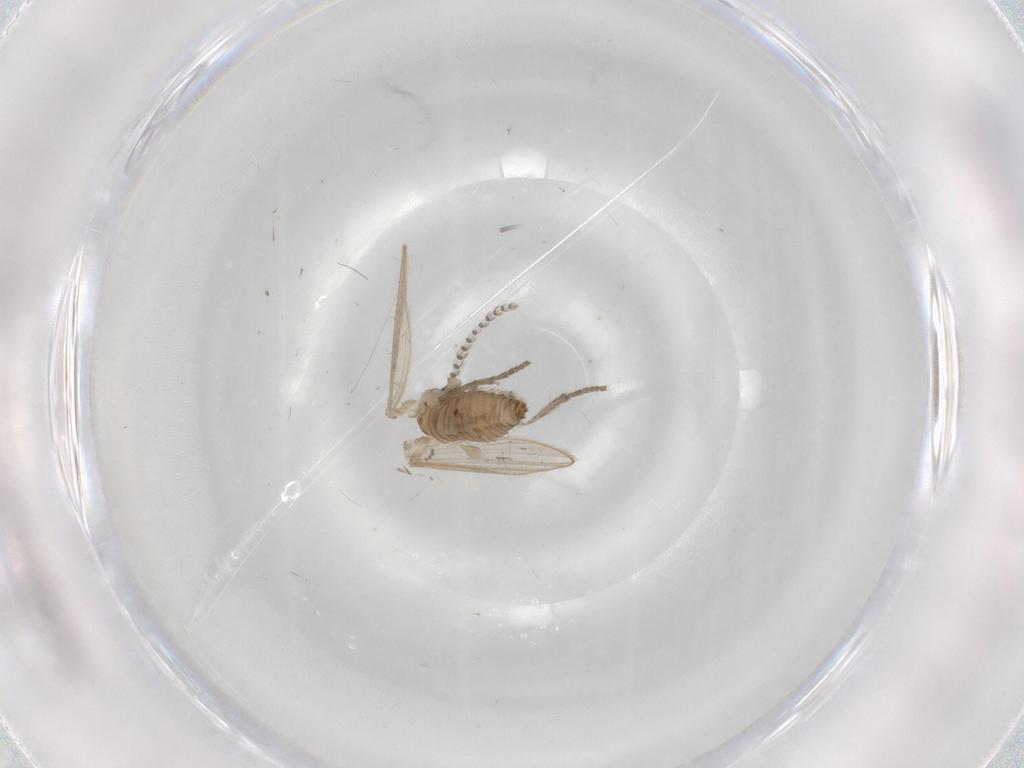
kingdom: Animalia
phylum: Arthropoda
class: Insecta
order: Diptera
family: Psychodidae
